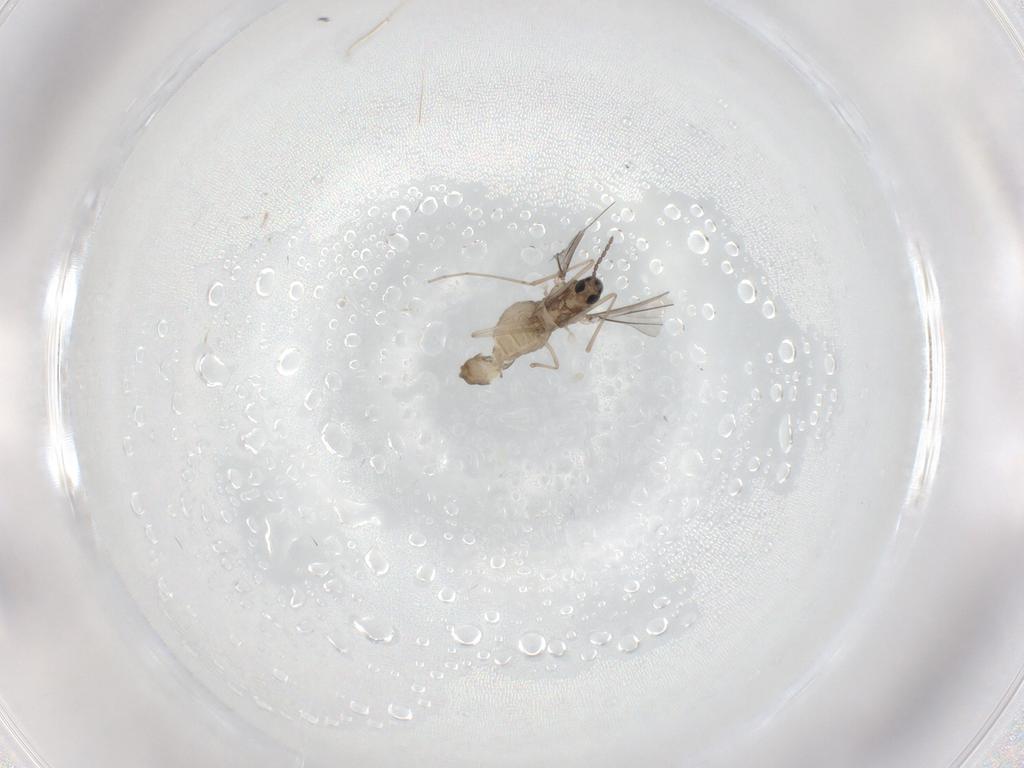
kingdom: Animalia
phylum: Arthropoda
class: Insecta
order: Diptera
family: Cecidomyiidae
